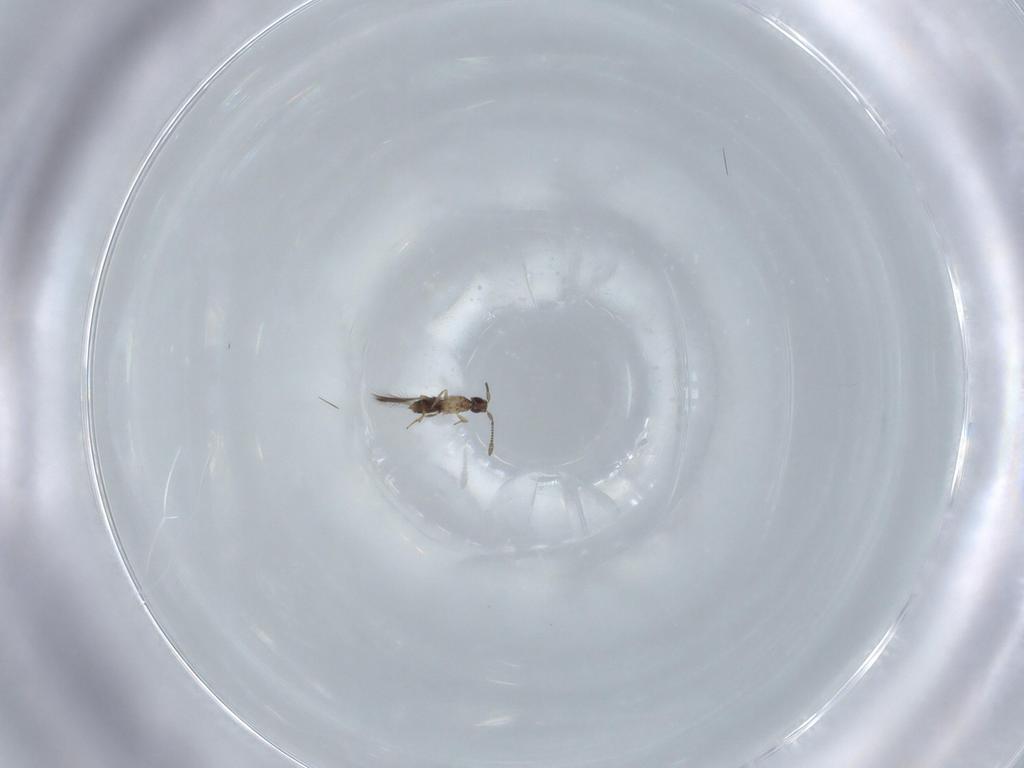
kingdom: Animalia
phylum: Arthropoda
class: Insecta
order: Hymenoptera
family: Mymaridae
